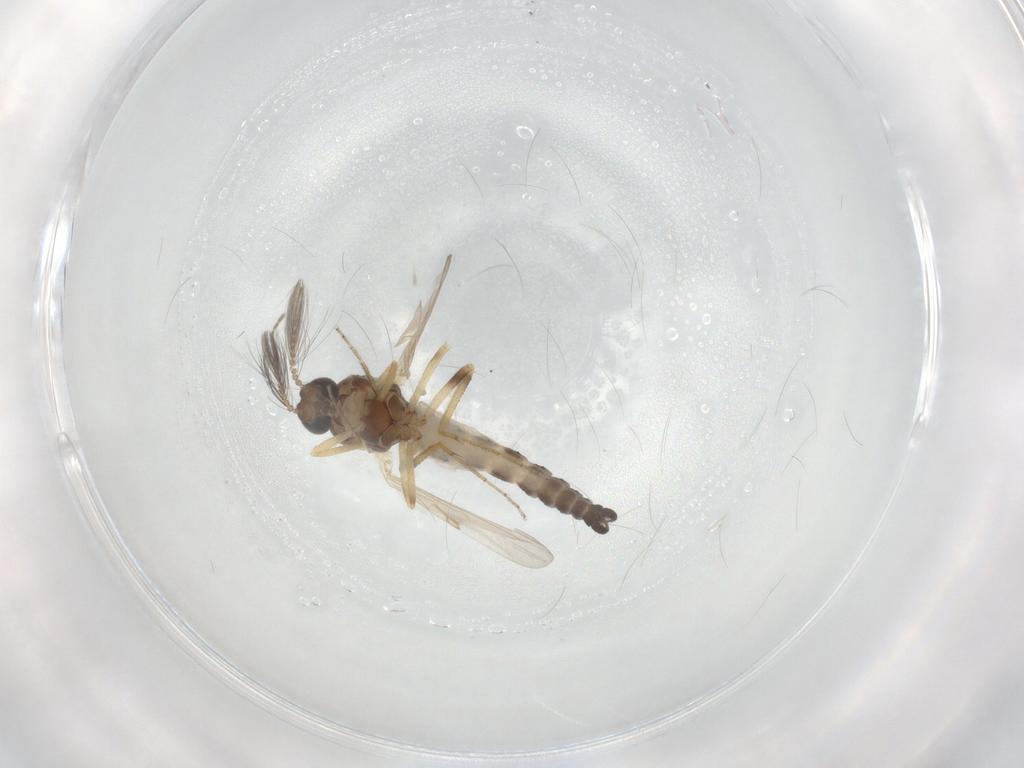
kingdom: Animalia
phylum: Arthropoda
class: Insecta
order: Diptera
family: Ceratopogonidae
